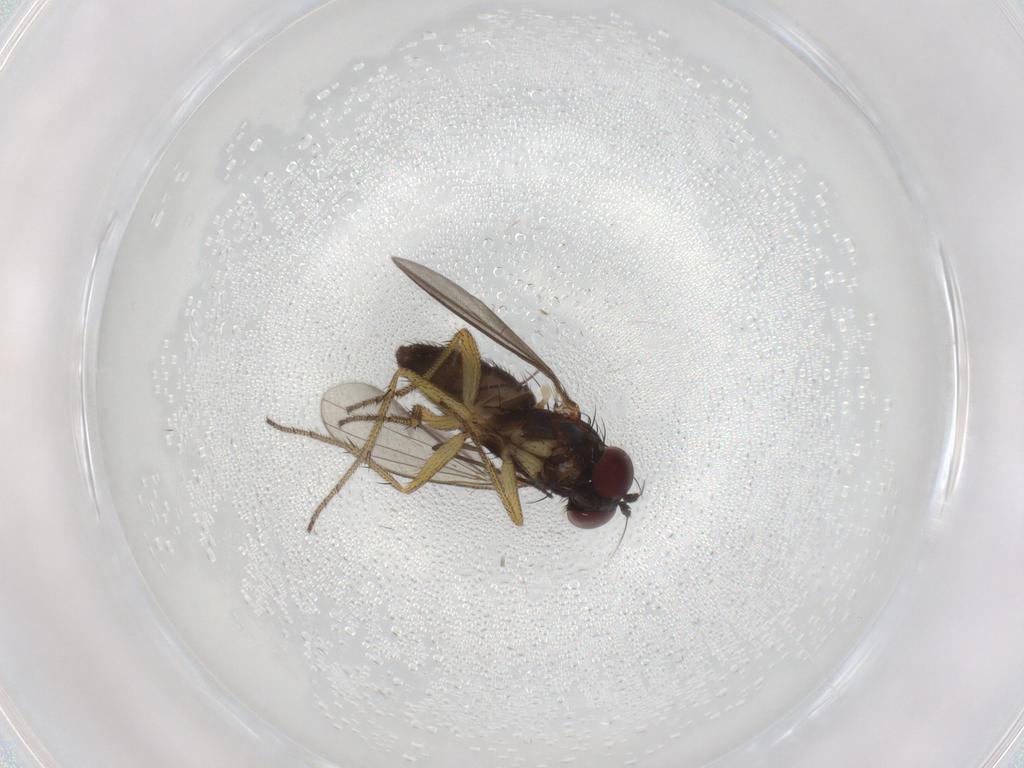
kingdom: Animalia
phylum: Arthropoda
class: Insecta
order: Diptera
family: Dolichopodidae
